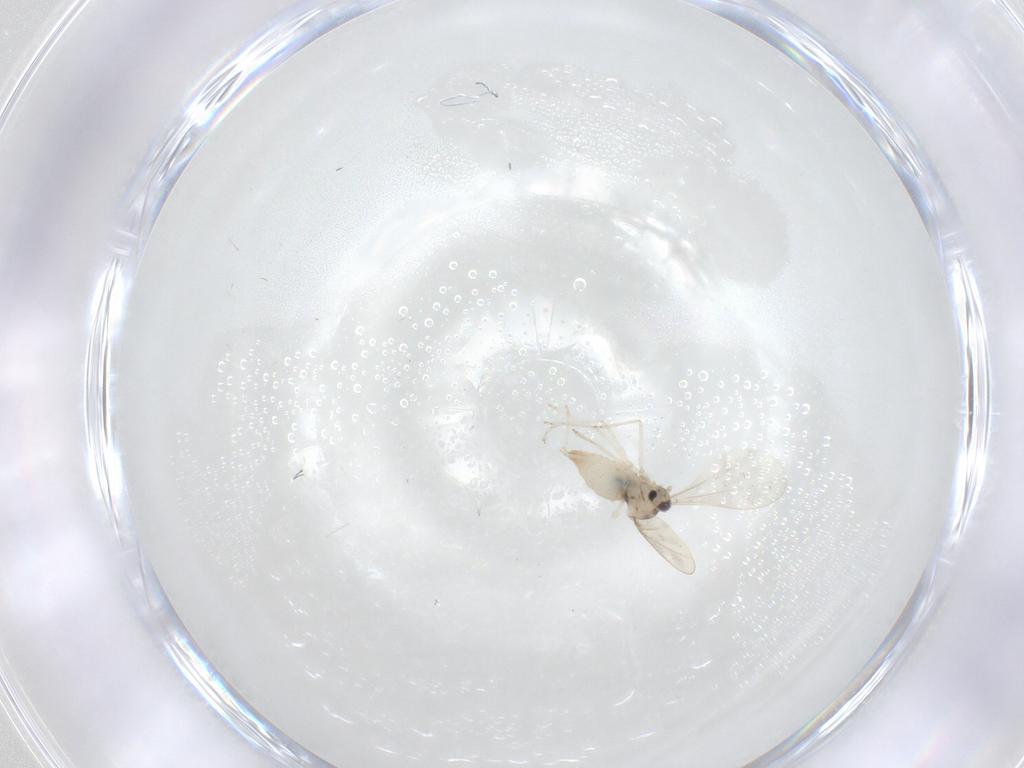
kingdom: Animalia
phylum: Arthropoda
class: Insecta
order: Diptera
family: Cecidomyiidae
